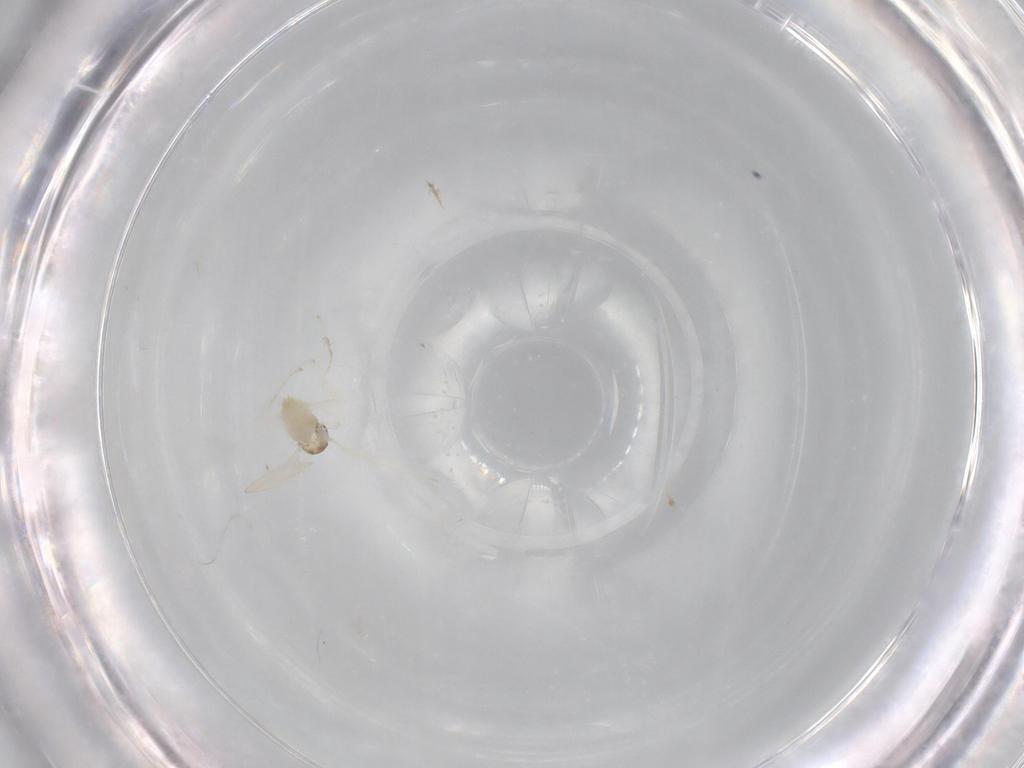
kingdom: Animalia
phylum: Arthropoda
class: Insecta
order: Diptera
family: Cecidomyiidae
